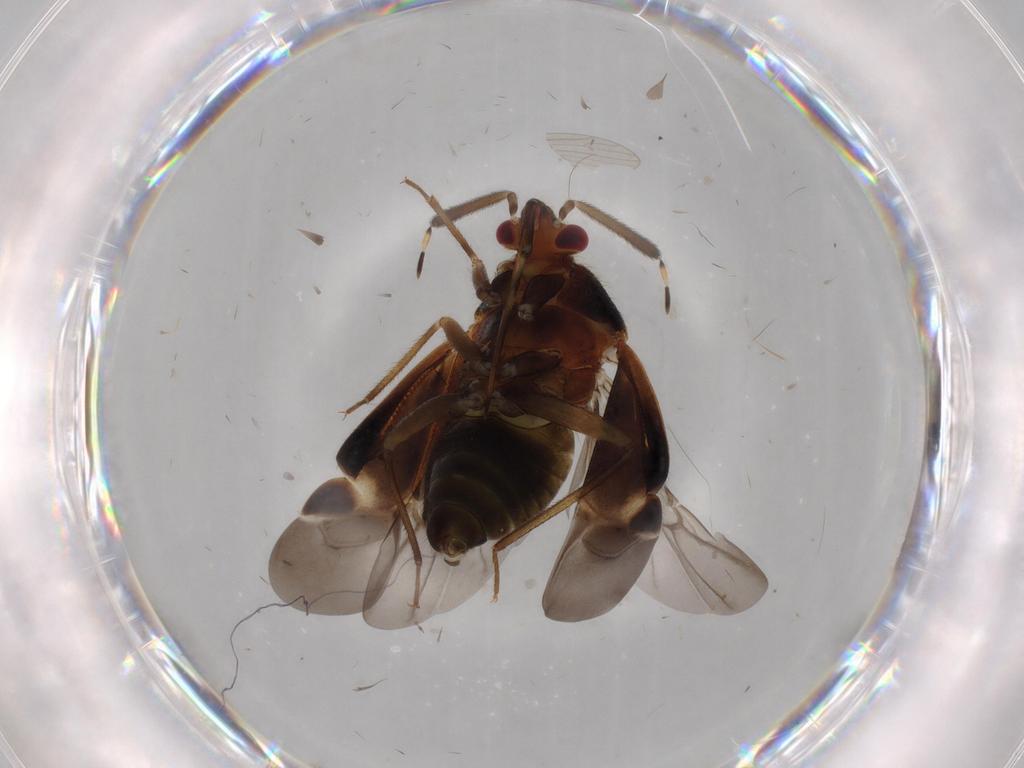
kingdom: Animalia
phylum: Arthropoda
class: Insecta
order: Hemiptera
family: Miridae
